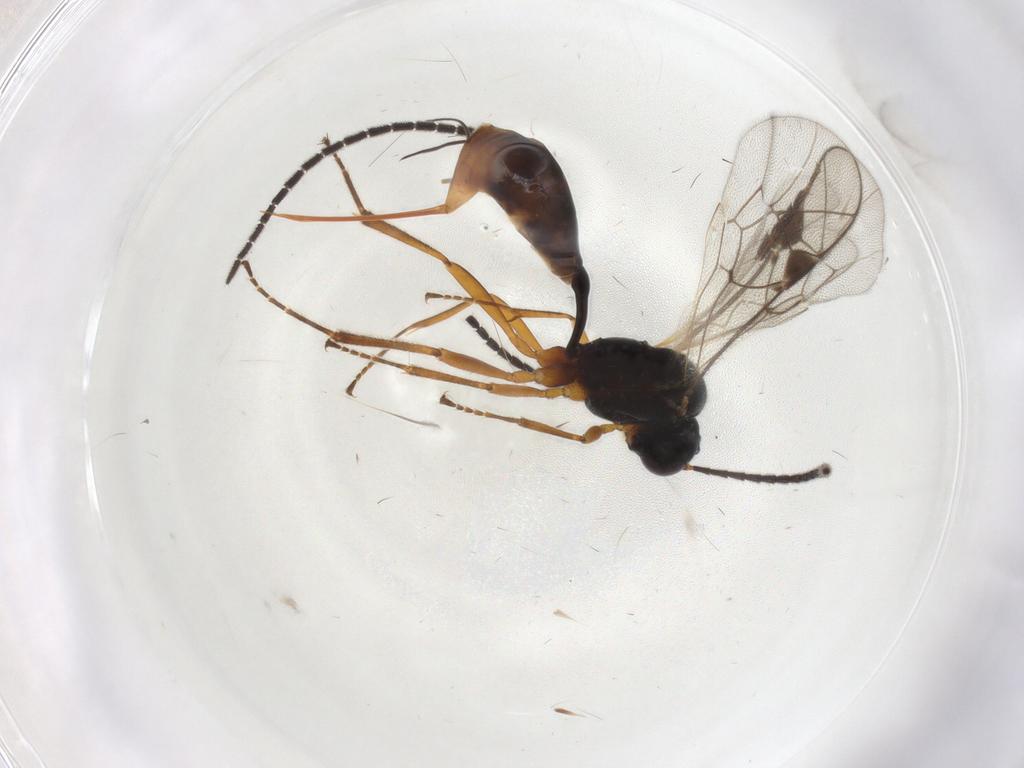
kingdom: Animalia
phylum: Arthropoda
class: Insecta
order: Hymenoptera
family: Ichneumonidae
